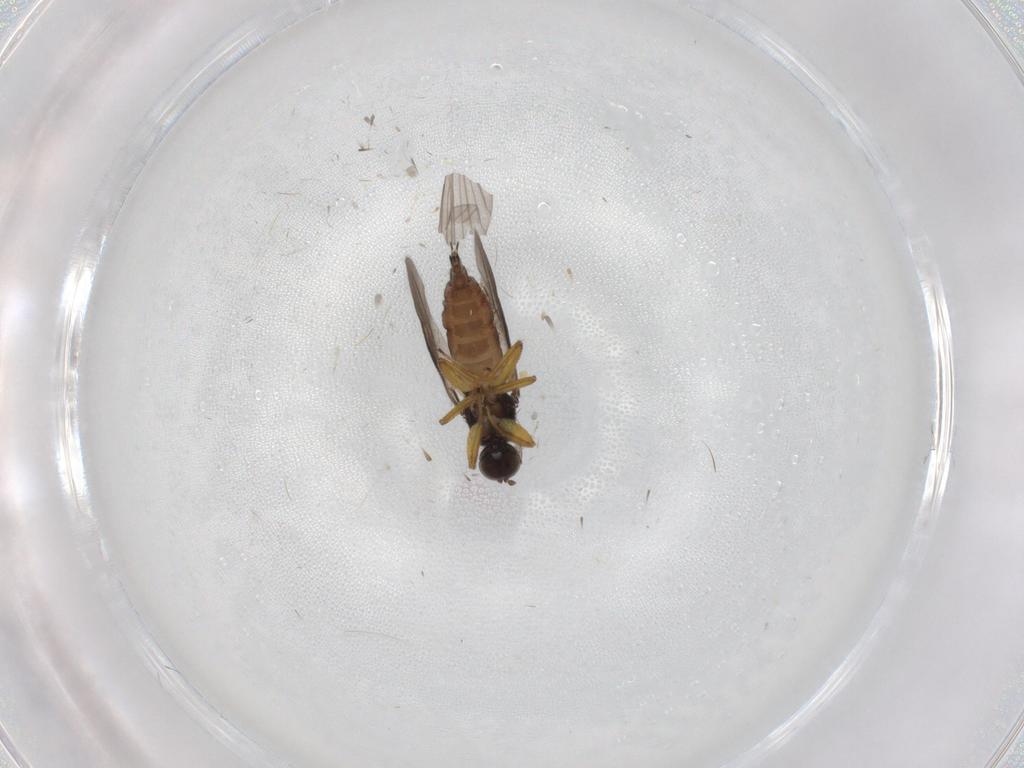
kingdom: Animalia
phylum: Arthropoda
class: Insecta
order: Diptera
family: Hybotidae
